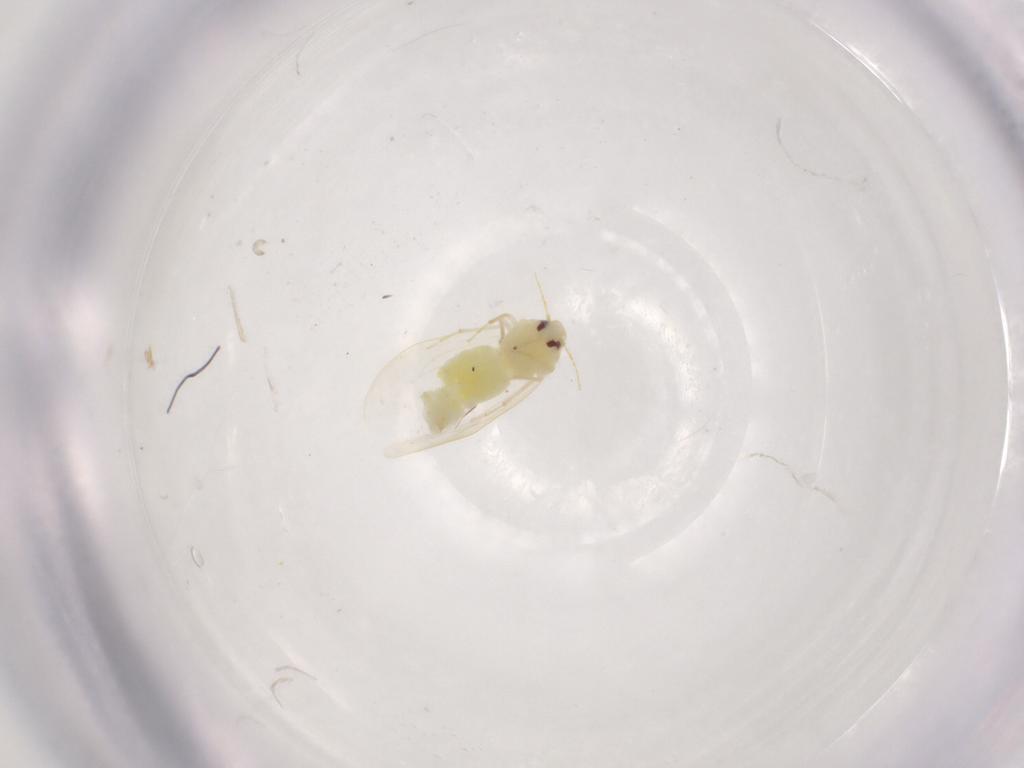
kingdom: Animalia
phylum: Arthropoda
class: Insecta
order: Hemiptera
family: Aleyrodidae
